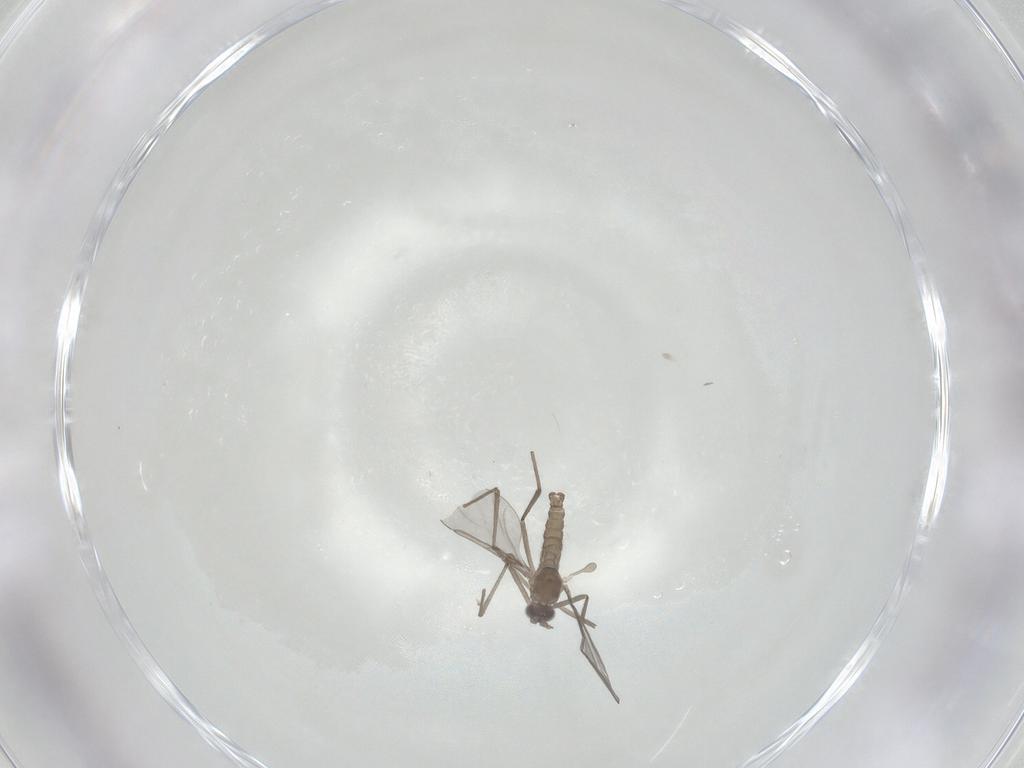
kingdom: Animalia
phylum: Arthropoda
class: Insecta
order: Diptera
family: Cecidomyiidae
